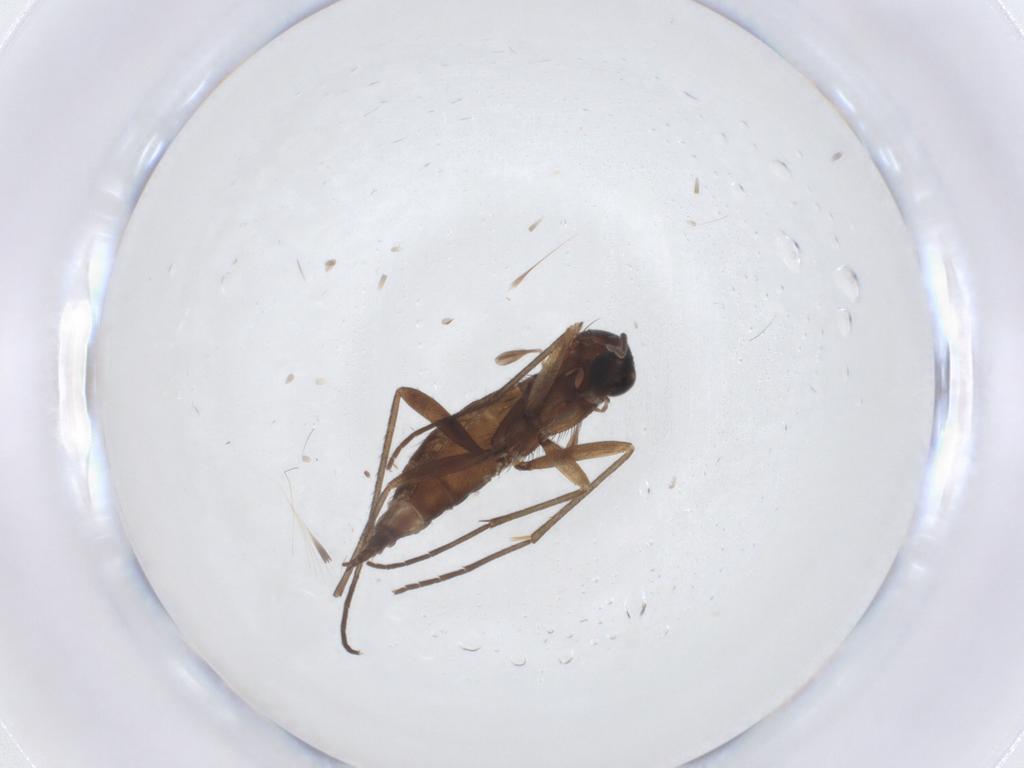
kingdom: Animalia
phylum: Arthropoda
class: Insecta
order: Diptera
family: Sciaridae
